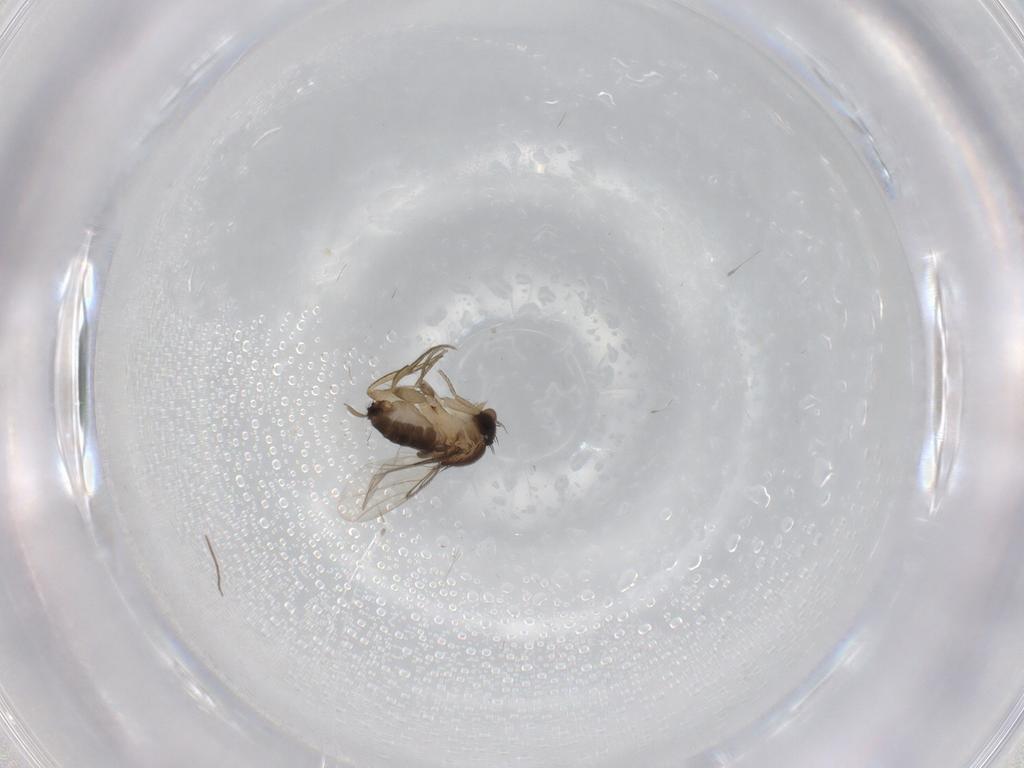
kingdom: Animalia
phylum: Arthropoda
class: Insecta
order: Diptera
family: Chironomidae
